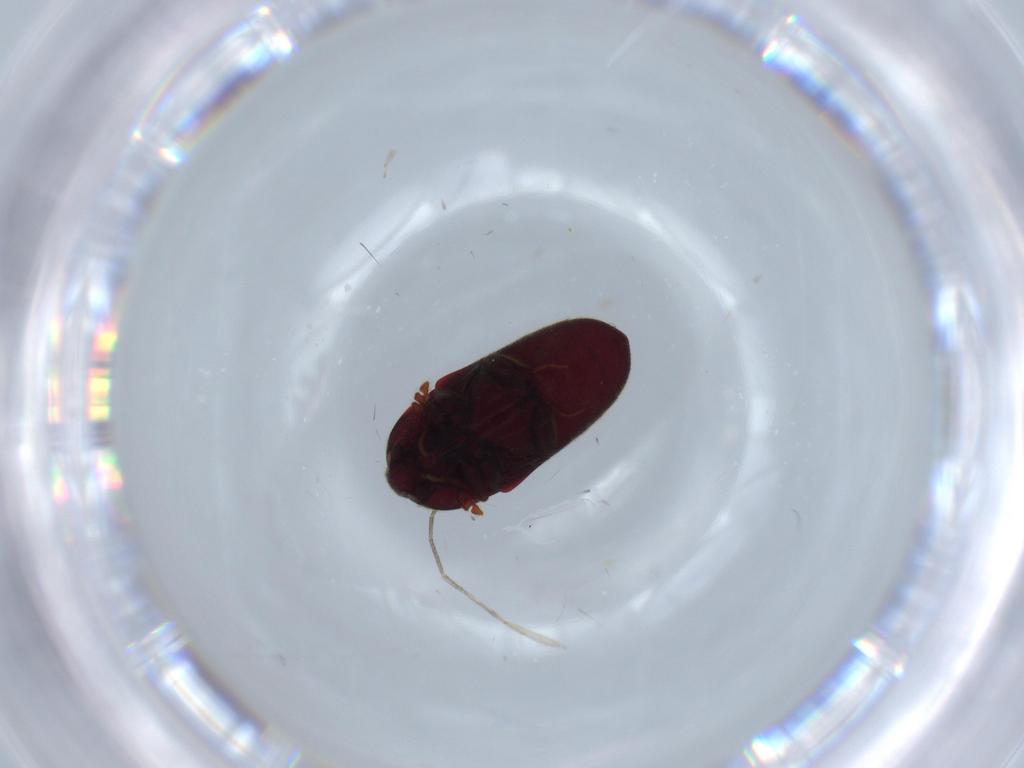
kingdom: Animalia
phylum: Arthropoda
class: Insecta
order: Coleoptera
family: Throscidae
